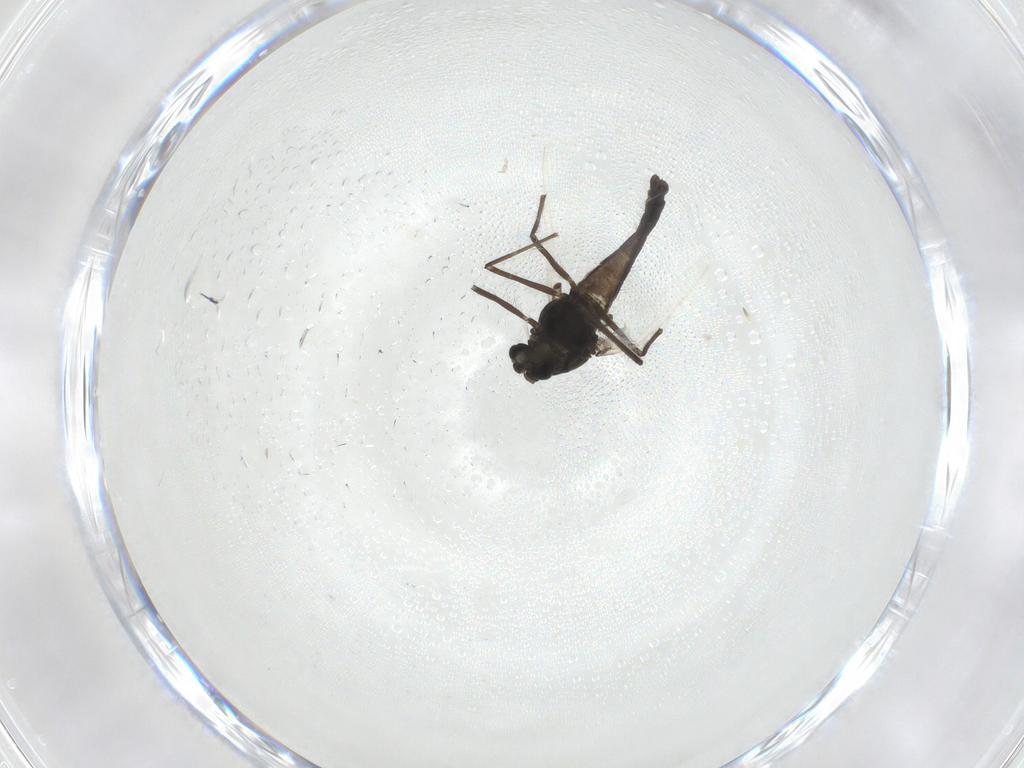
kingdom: Animalia
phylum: Arthropoda
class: Insecta
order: Diptera
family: Chironomidae
